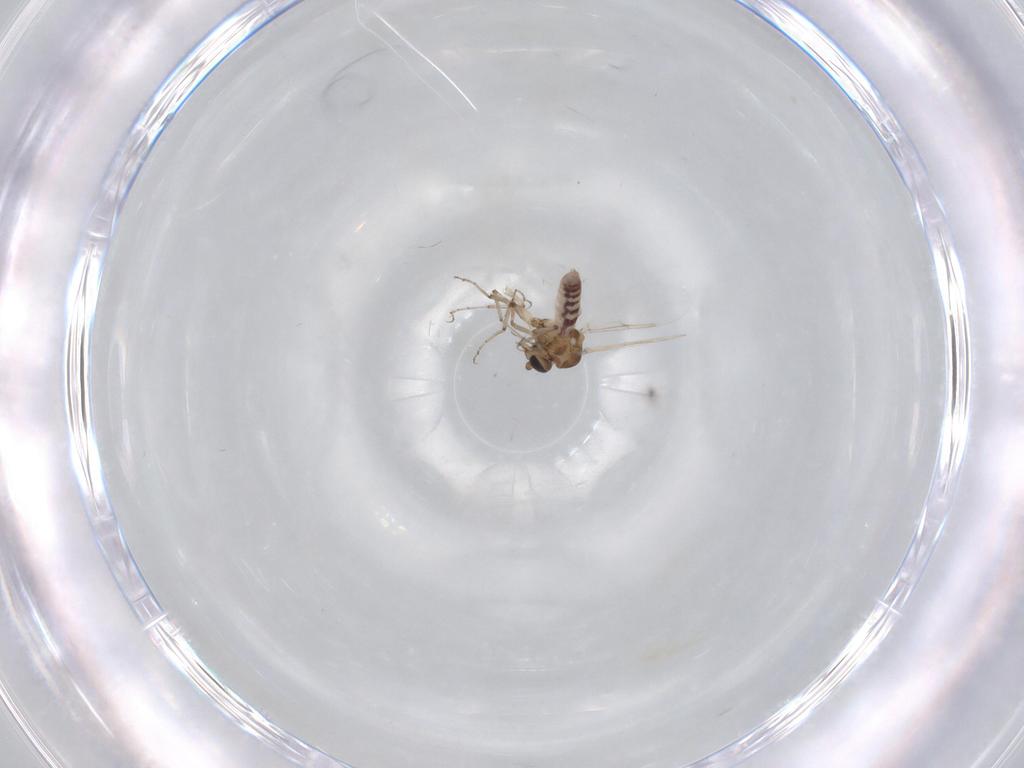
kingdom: Animalia
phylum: Arthropoda
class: Insecta
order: Diptera
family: Ceratopogonidae
